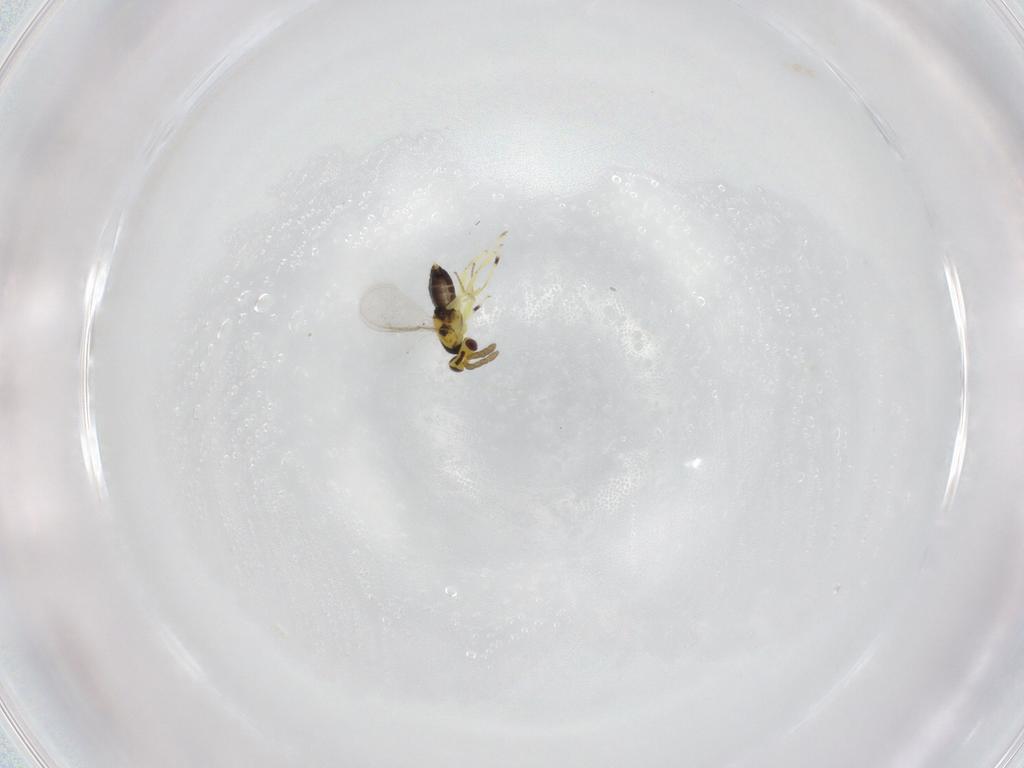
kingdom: Animalia
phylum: Arthropoda
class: Insecta
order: Hymenoptera
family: Aphelinidae
